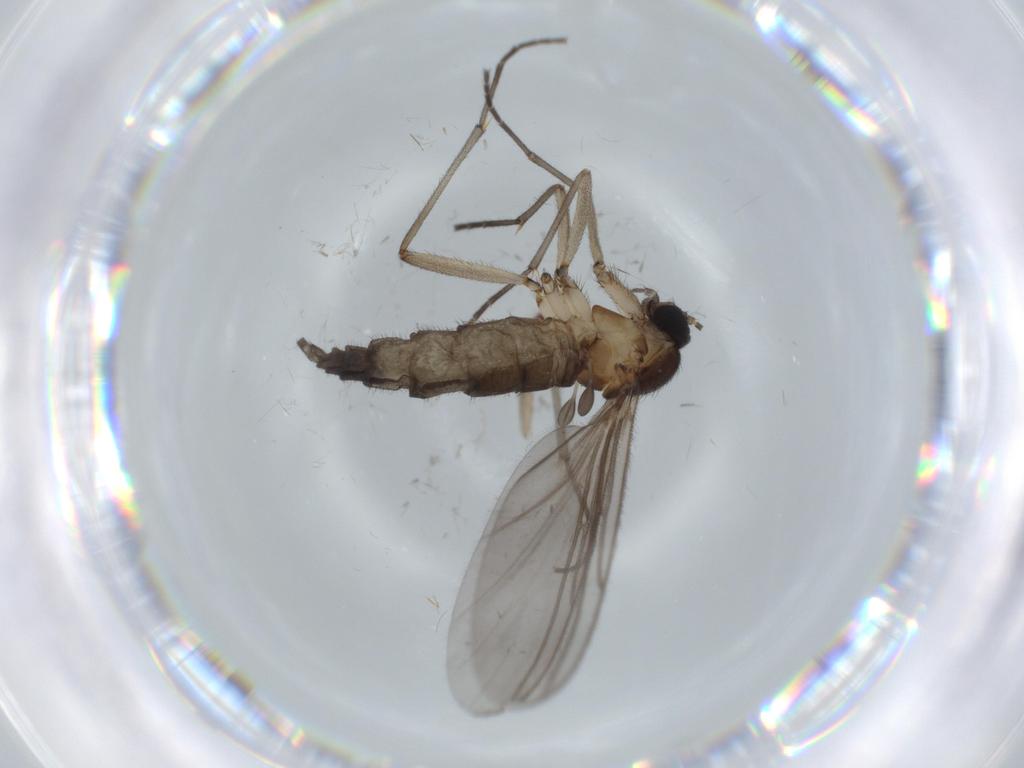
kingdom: Animalia
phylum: Arthropoda
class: Insecta
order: Diptera
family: Sciaridae
